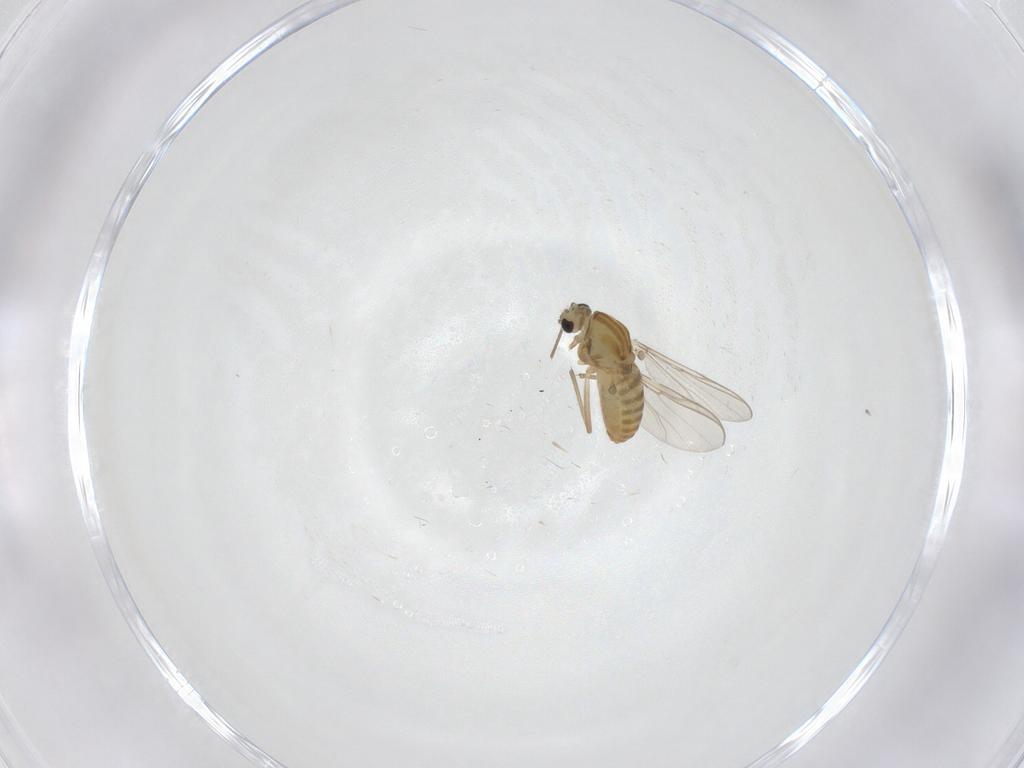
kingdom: Animalia
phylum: Arthropoda
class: Insecta
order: Diptera
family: Chironomidae
